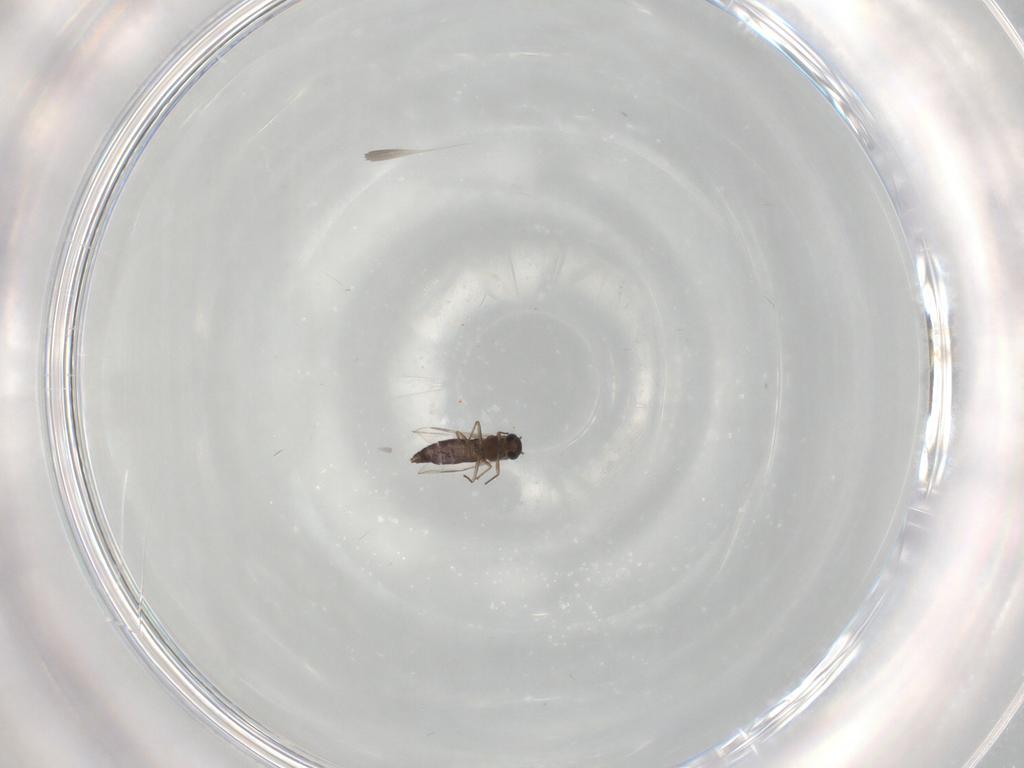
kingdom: Animalia
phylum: Arthropoda
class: Insecta
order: Diptera
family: Chironomidae
